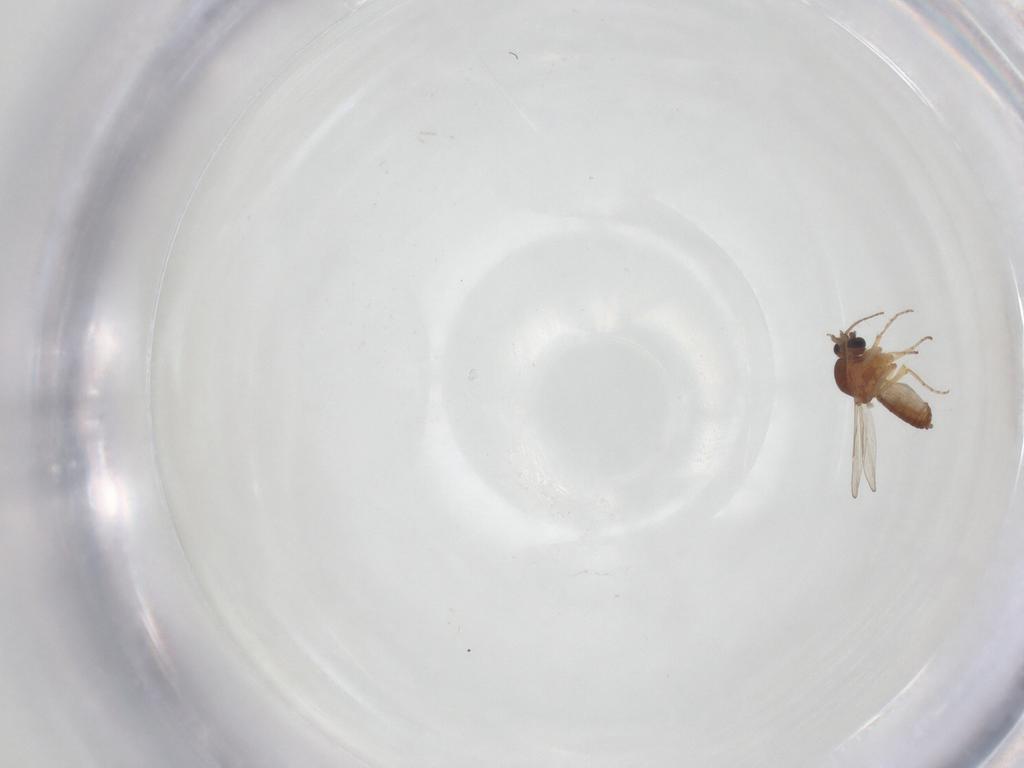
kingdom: Animalia
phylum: Arthropoda
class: Insecta
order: Diptera
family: Ceratopogonidae
